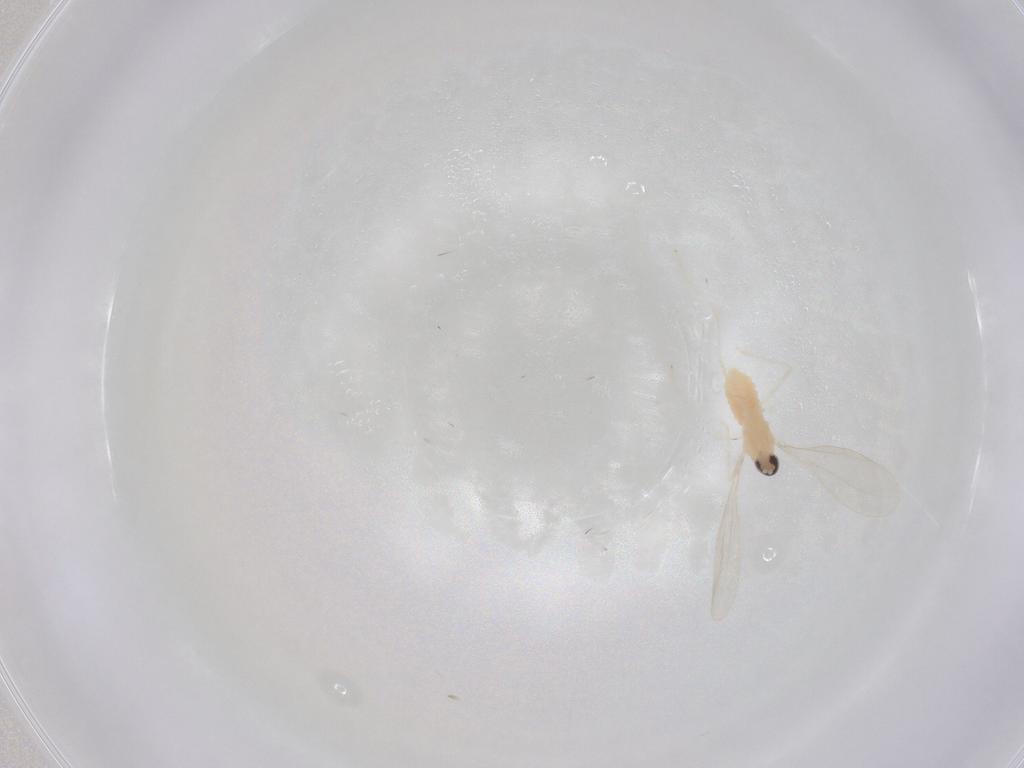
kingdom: Animalia
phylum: Arthropoda
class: Insecta
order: Diptera
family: Cecidomyiidae
